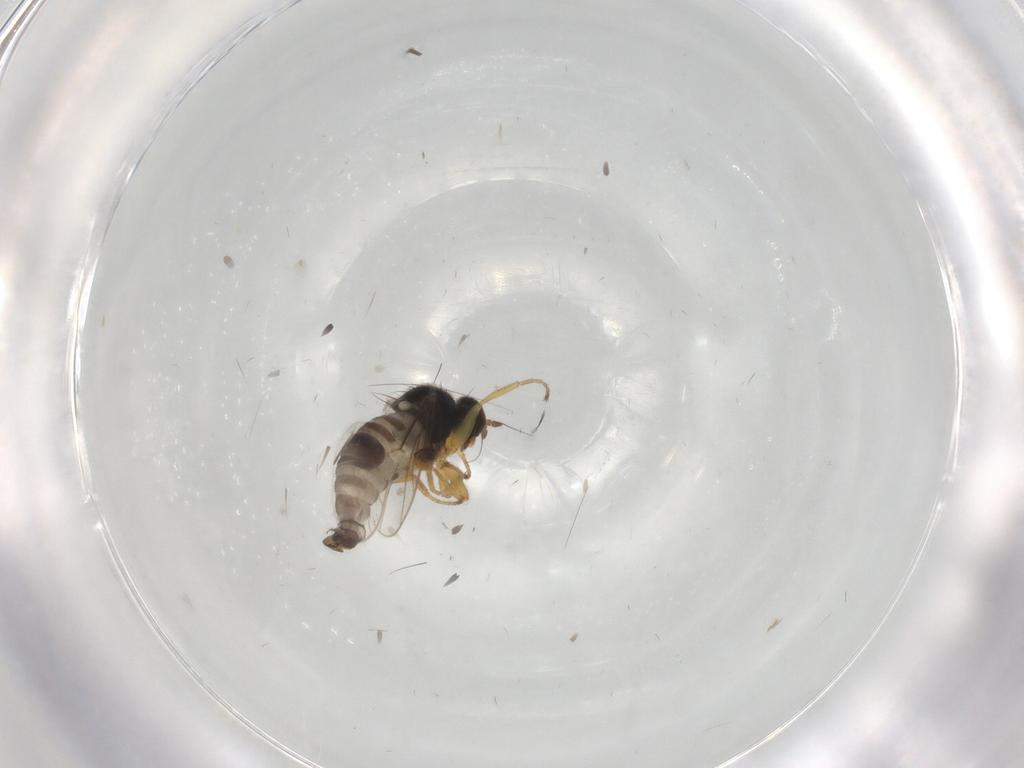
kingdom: Animalia
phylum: Arthropoda
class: Insecta
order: Diptera
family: Hybotidae
